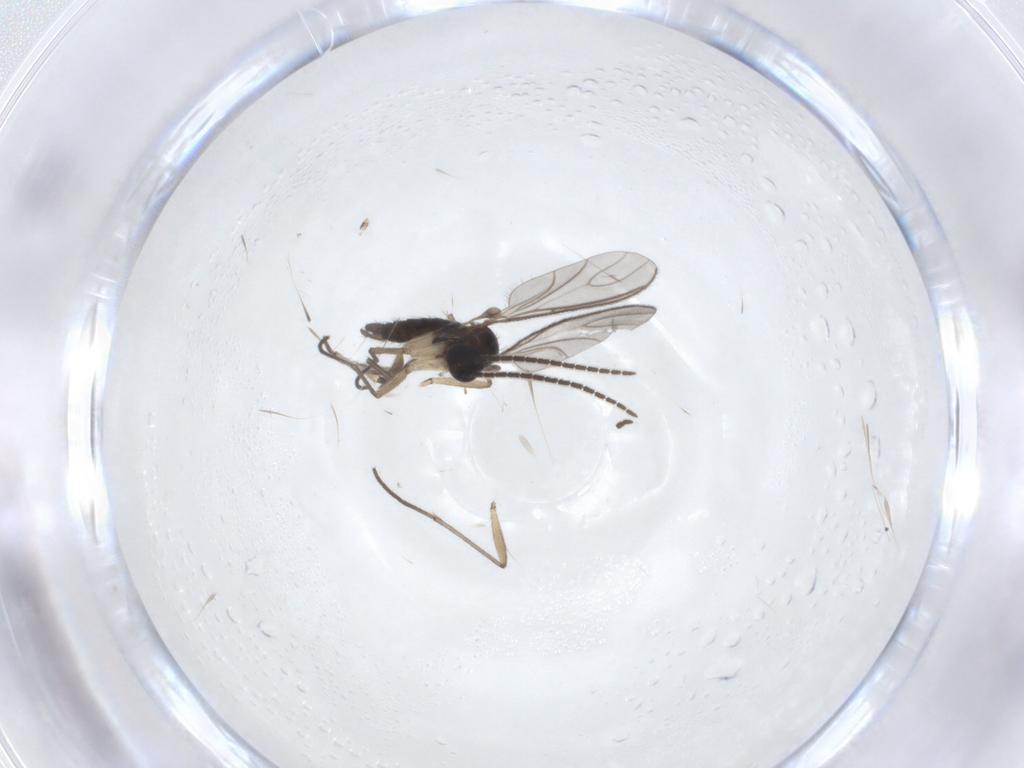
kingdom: Animalia
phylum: Arthropoda
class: Insecta
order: Diptera
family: Sciaridae
